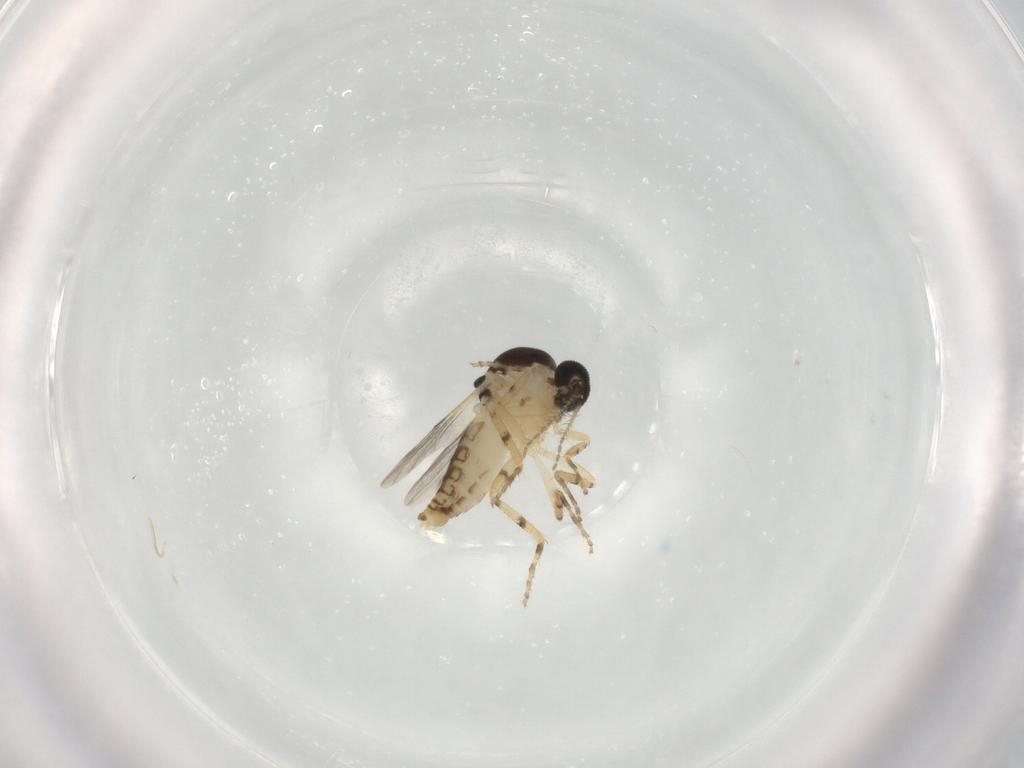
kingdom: Animalia
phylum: Arthropoda
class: Insecta
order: Diptera
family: Ceratopogonidae
